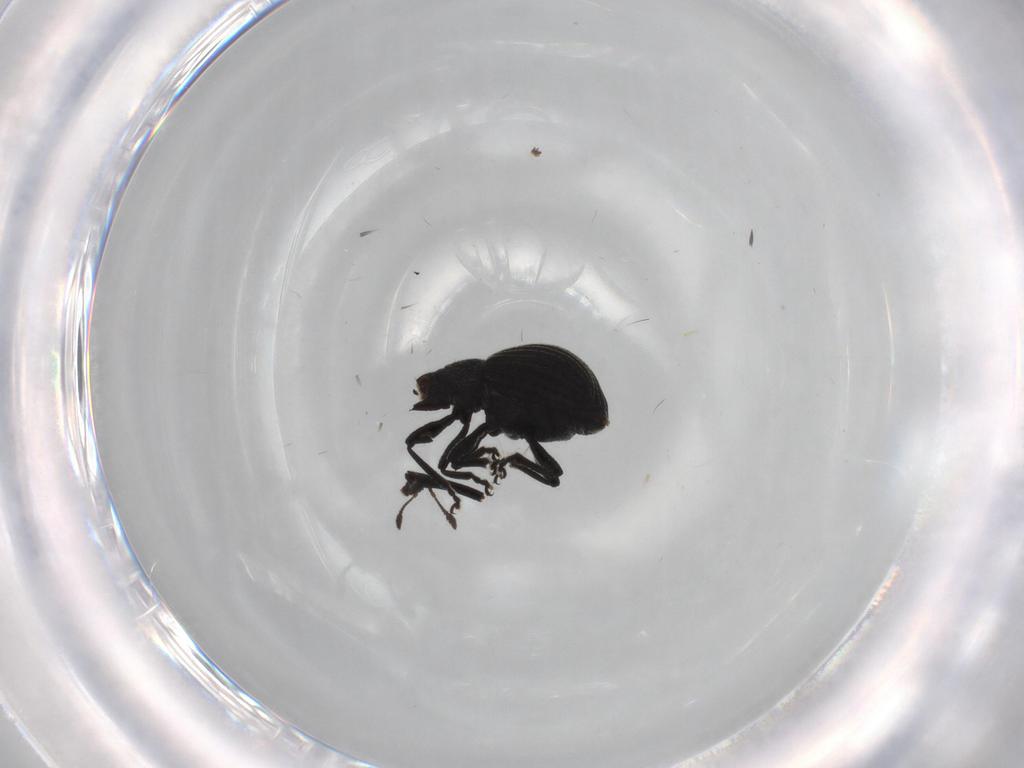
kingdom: Animalia
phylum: Arthropoda
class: Insecta
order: Coleoptera
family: Brentidae
